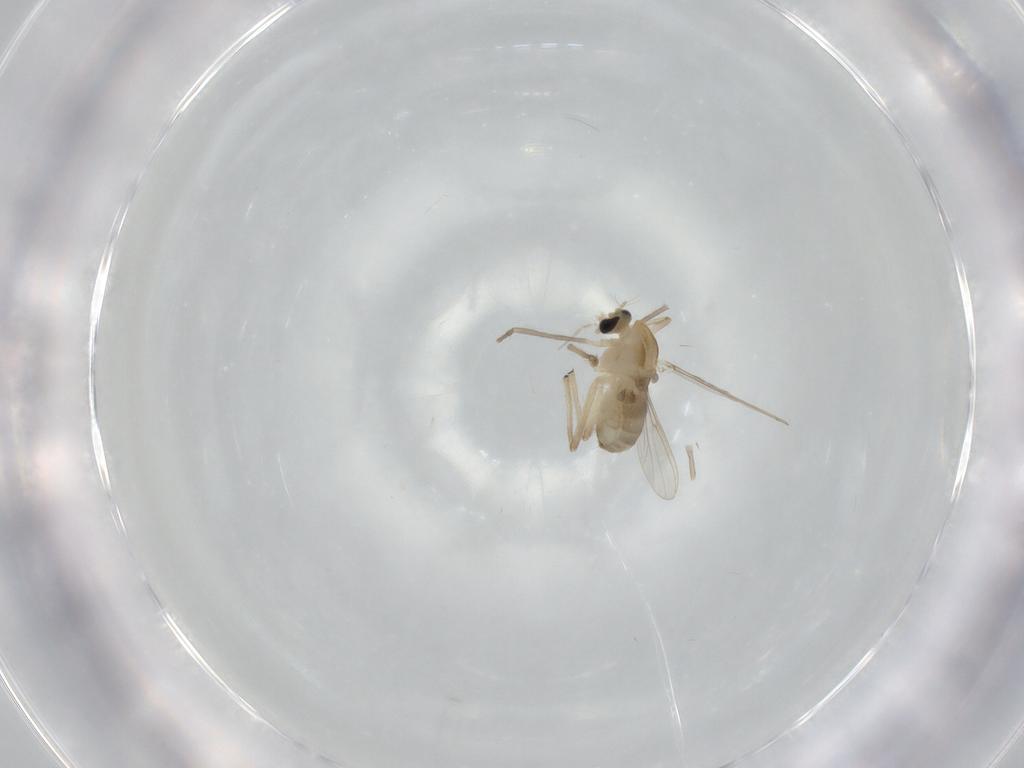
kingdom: Animalia
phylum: Arthropoda
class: Insecta
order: Diptera
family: Chironomidae
